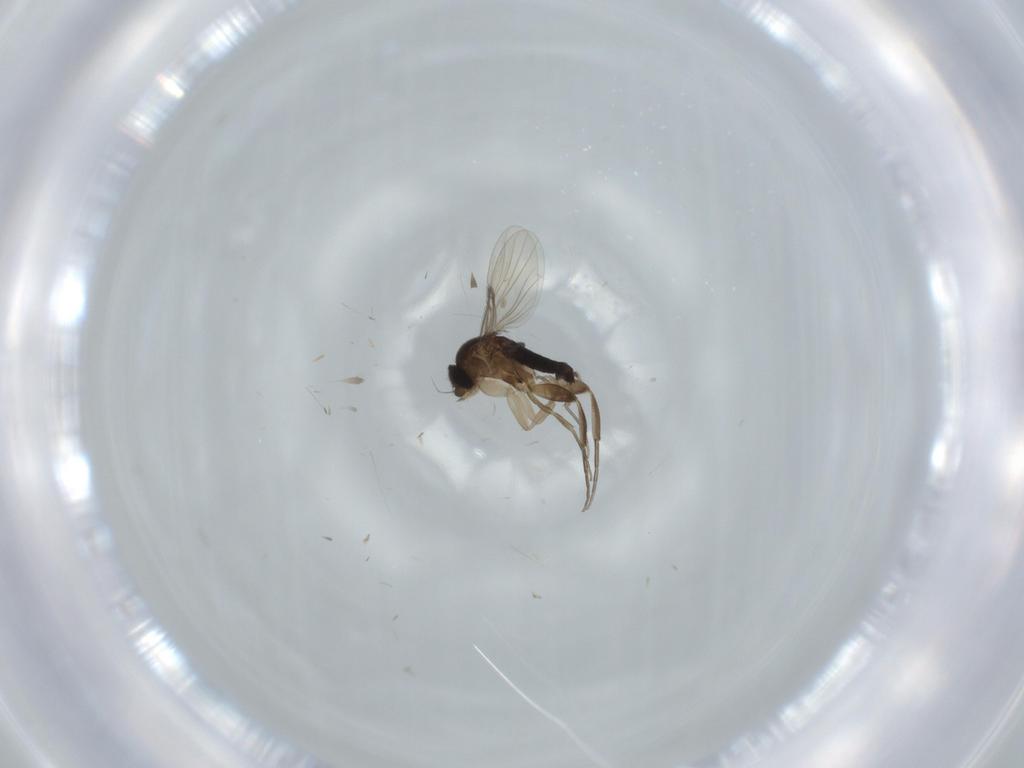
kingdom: Animalia
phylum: Arthropoda
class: Insecta
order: Diptera
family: Phoridae
